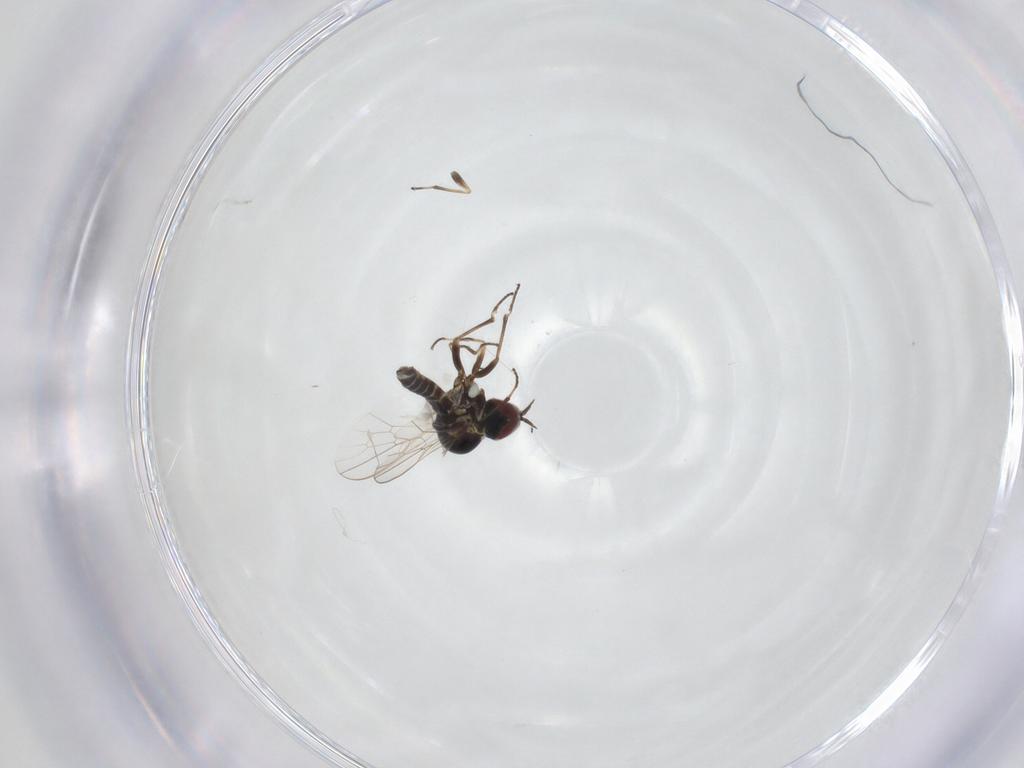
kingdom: Animalia
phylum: Arthropoda
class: Insecta
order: Diptera
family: Mythicomyiidae
